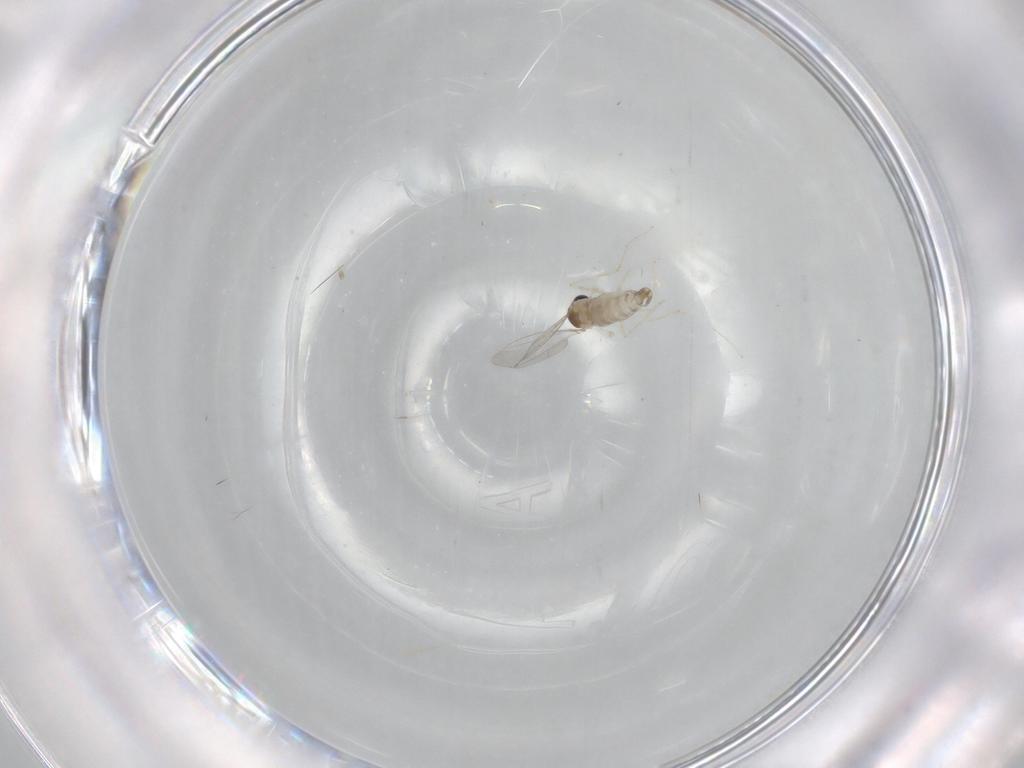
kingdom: Animalia
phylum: Arthropoda
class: Insecta
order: Diptera
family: Cecidomyiidae
